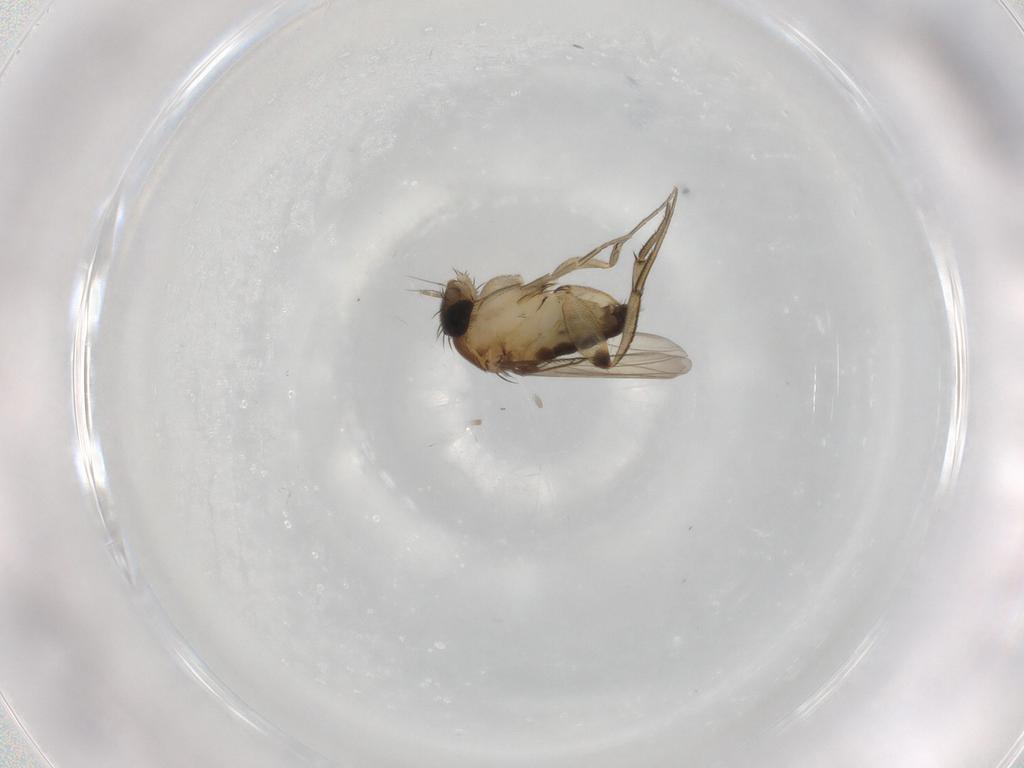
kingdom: Animalia
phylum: Arthropoda
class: Insecta
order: Diptera
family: Phoridae
